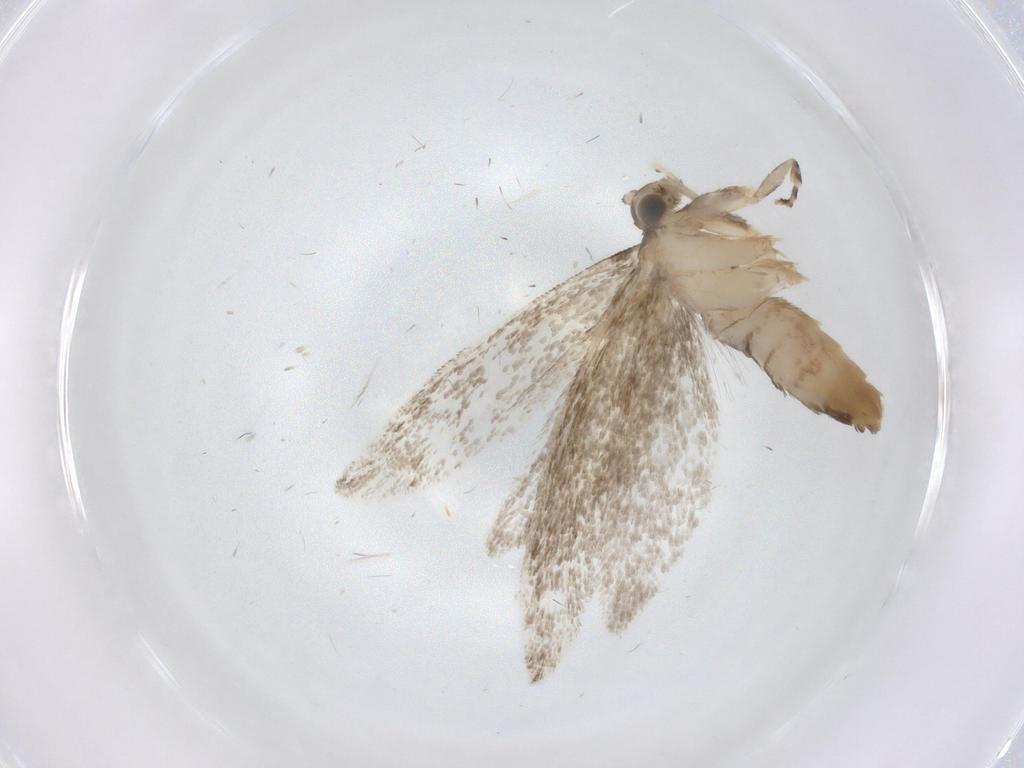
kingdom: Animalia
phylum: Arthropoda
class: Insecta
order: Lepidoptera
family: Tineidae
